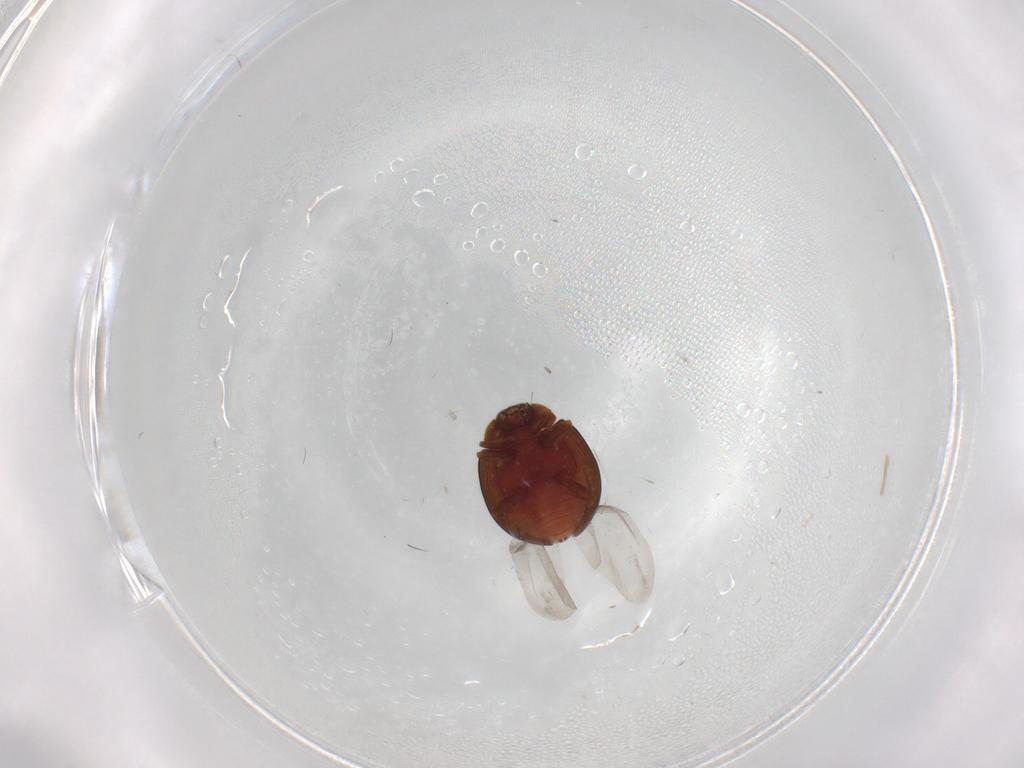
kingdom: Animalia
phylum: Arthropoda
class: Insecta
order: Coleoptera
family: Coccinellidae
